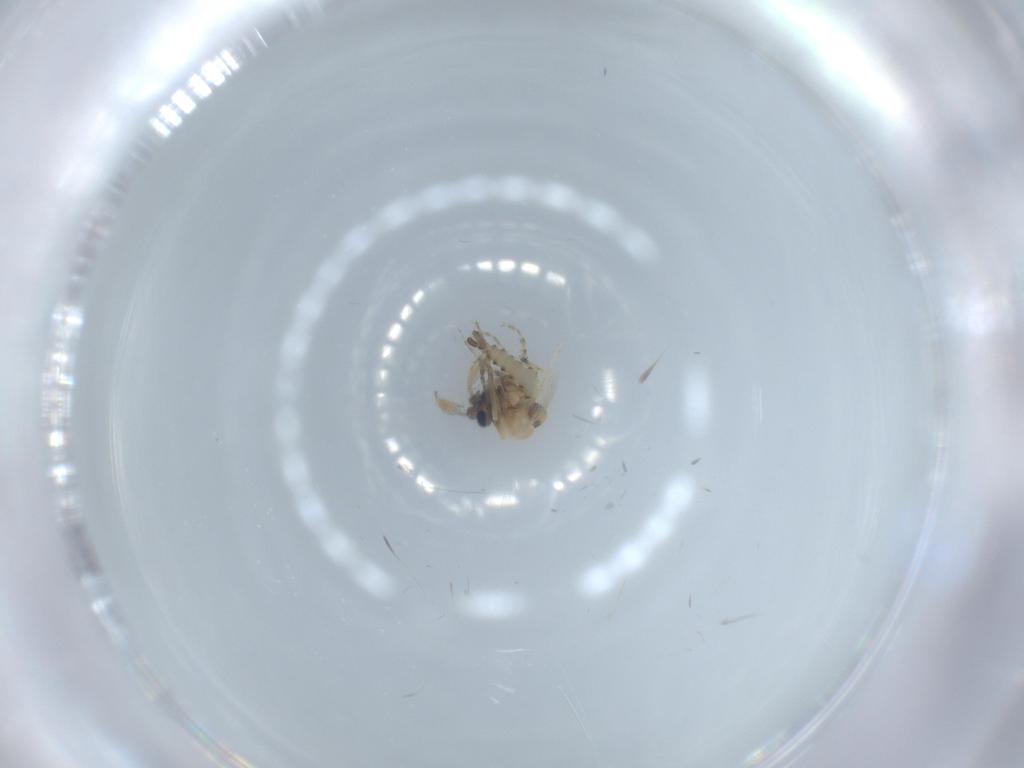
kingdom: Animalia
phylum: Arthropoda
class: Insecta
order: Diptera
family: Ceratopogonidae
